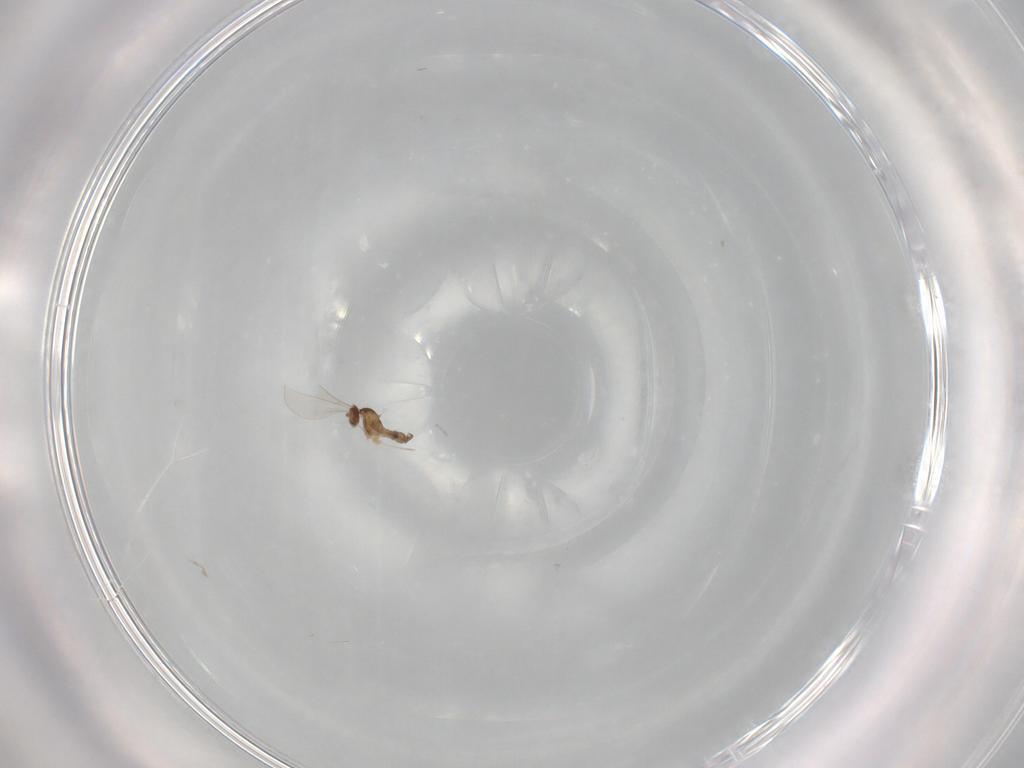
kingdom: Animalia
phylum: Arthropoda
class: Insecta
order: Diptera
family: Cecidomyiidae
